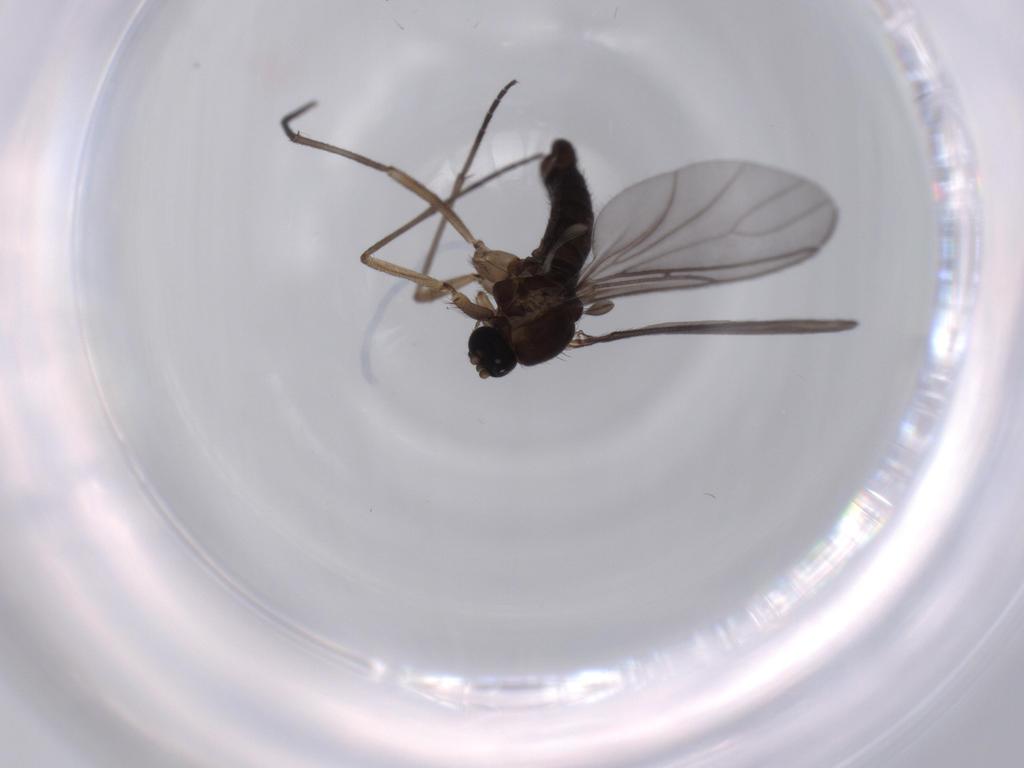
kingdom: Animalia
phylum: Arthropoda
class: Insecta
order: Diptera
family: Sciaridae
